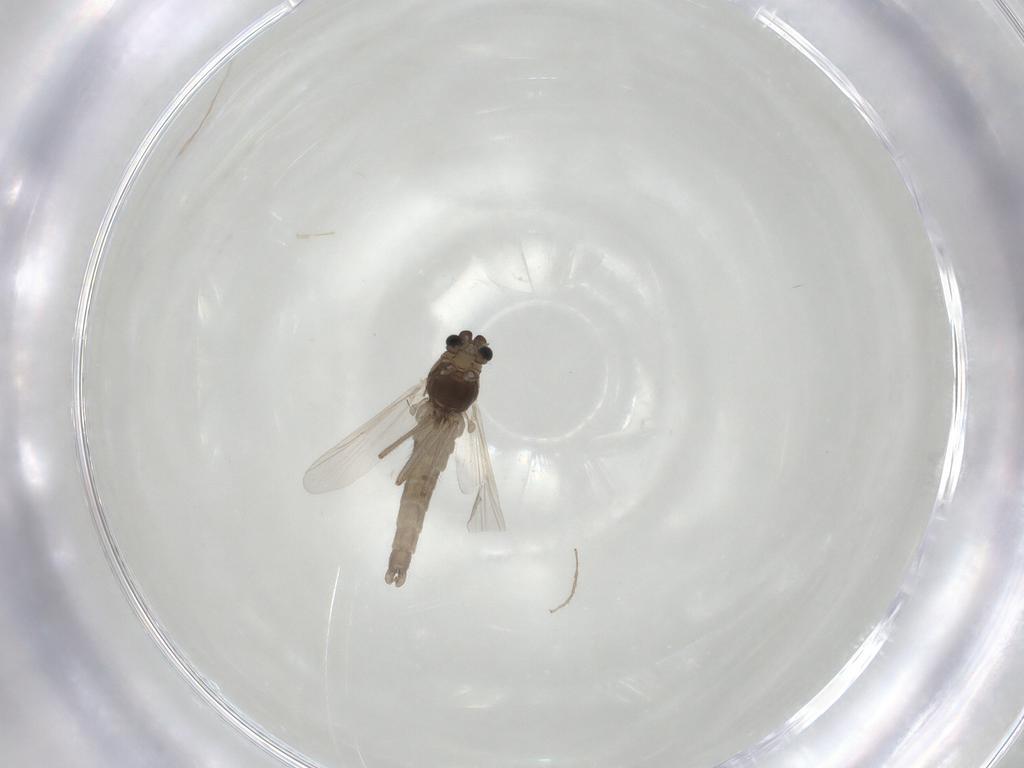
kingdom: Animalia
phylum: Arthropoda
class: Insecta
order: Diptera
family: Chironomidae
